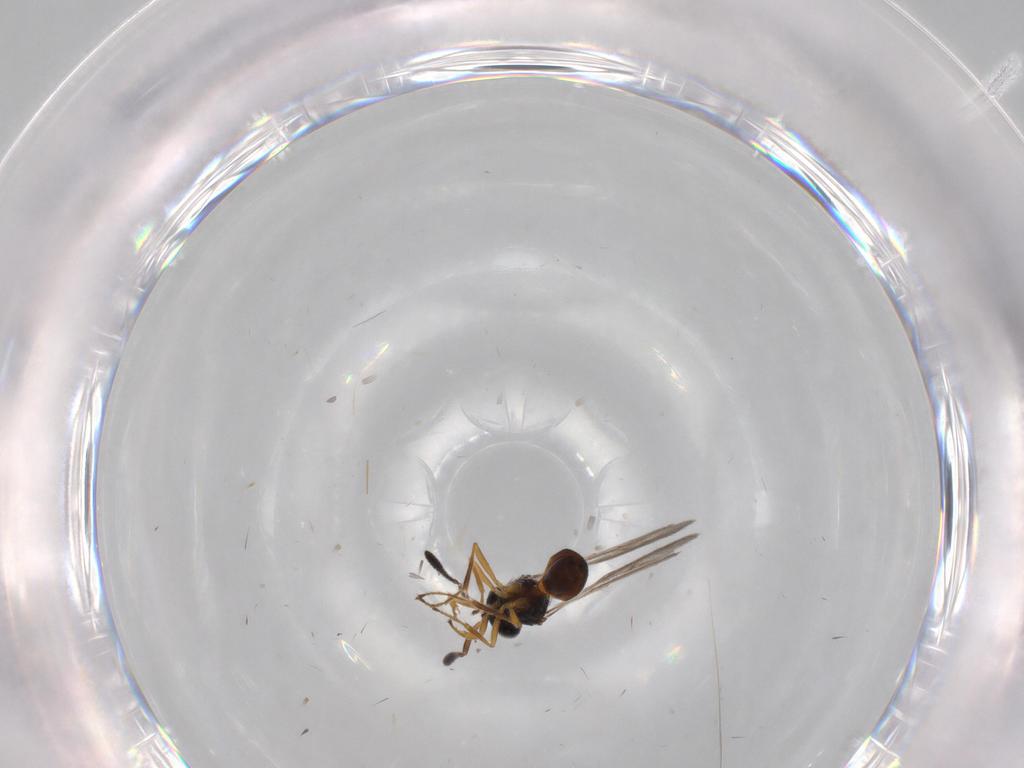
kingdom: Animalia
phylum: Arthropoda
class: Insecta
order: Hymenoptera
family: Scelionidae
